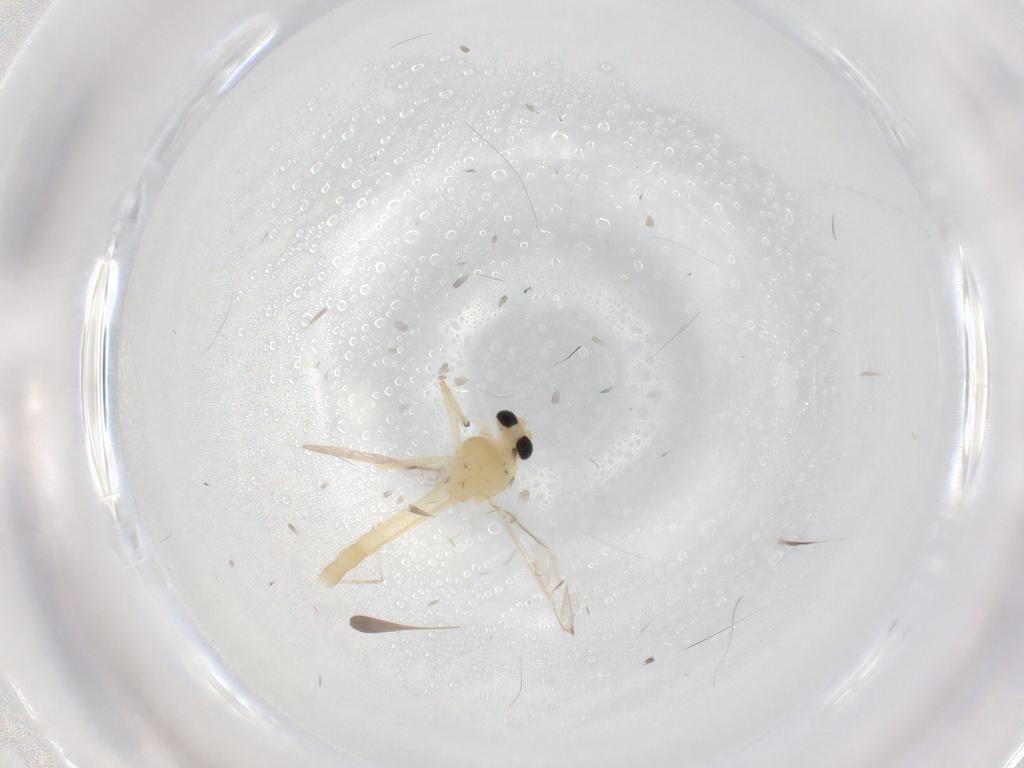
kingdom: Animalia
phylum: Arthropoda
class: Insecta
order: Diptera
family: Chironomidae
